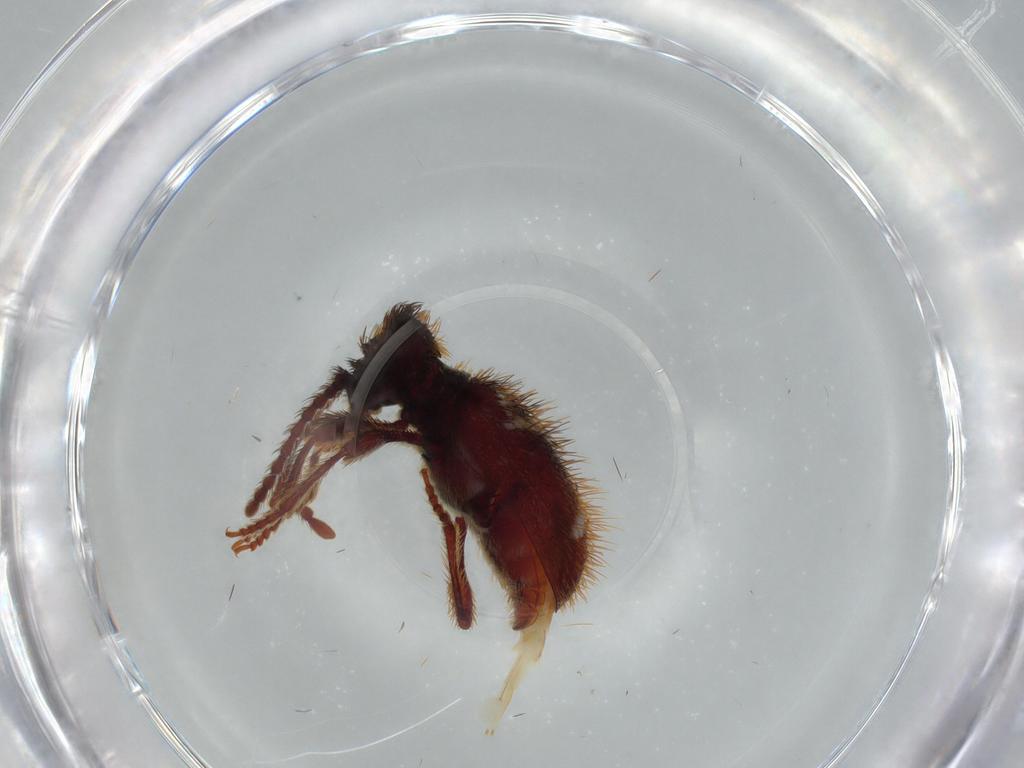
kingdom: Animalia
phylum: Arthropoda
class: Insecta
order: Coleoptera
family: Brentidae
